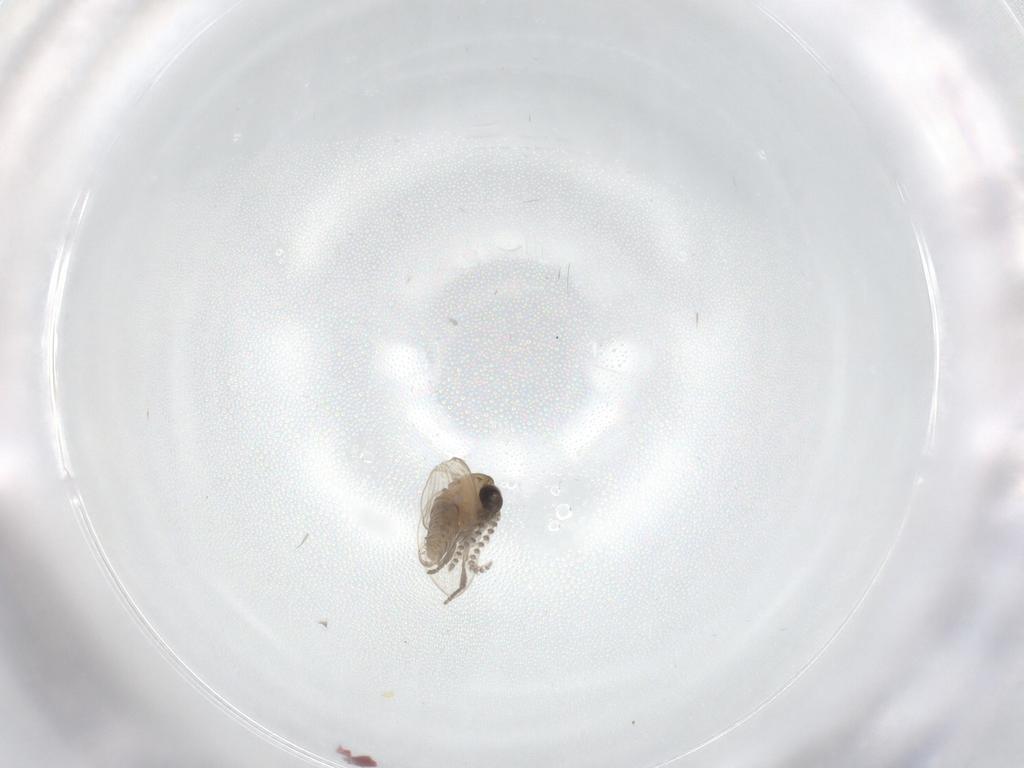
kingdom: Animalia
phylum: Arthropoda
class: Insecta
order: Diptera
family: Psychodidae
